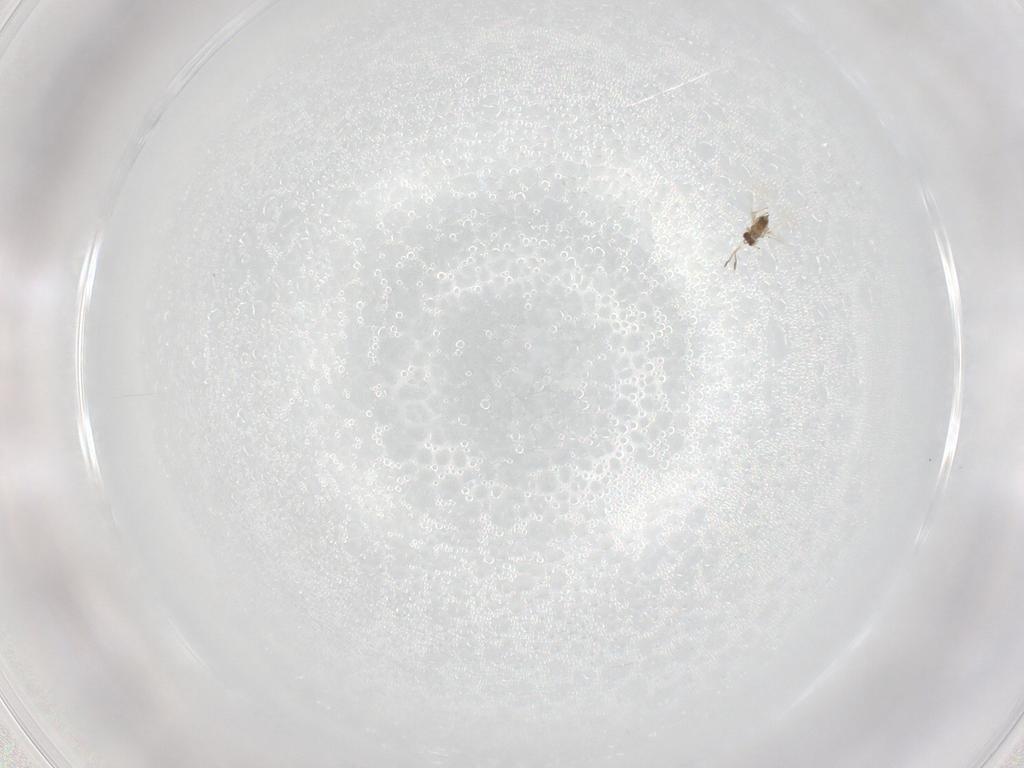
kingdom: Animalia
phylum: Arthropoda
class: Insecta
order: Hymenoptera
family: Mymaridae
